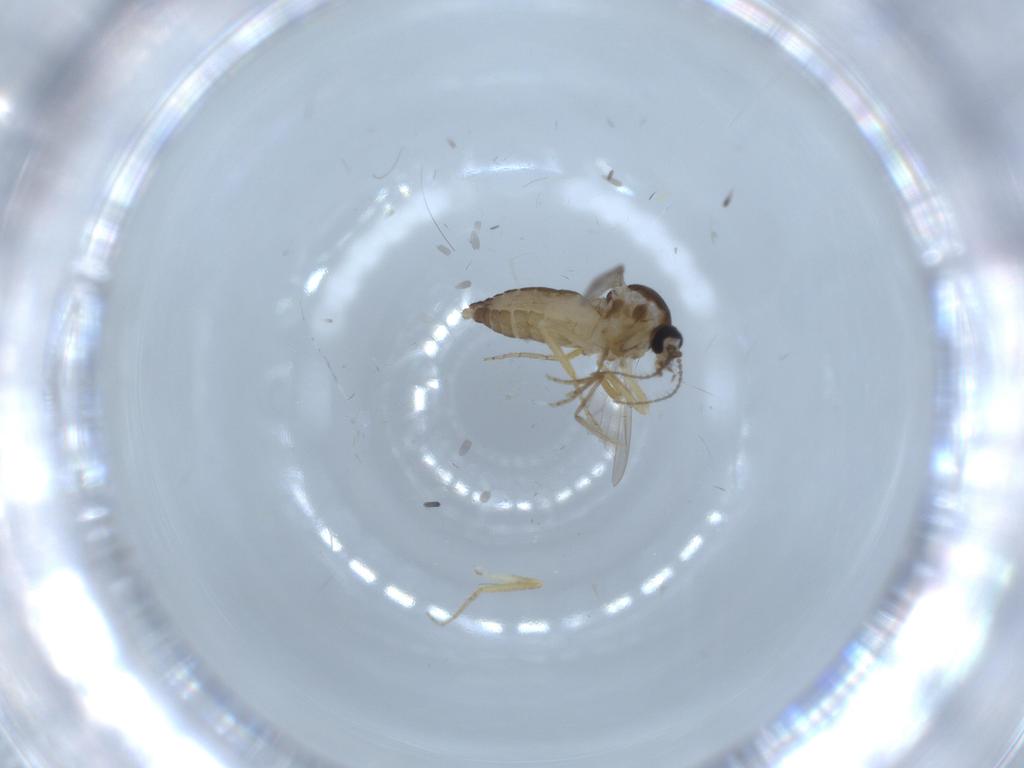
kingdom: Animalia
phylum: Arthropoda
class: Insecta
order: Diptera
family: Ceratopogonidae
